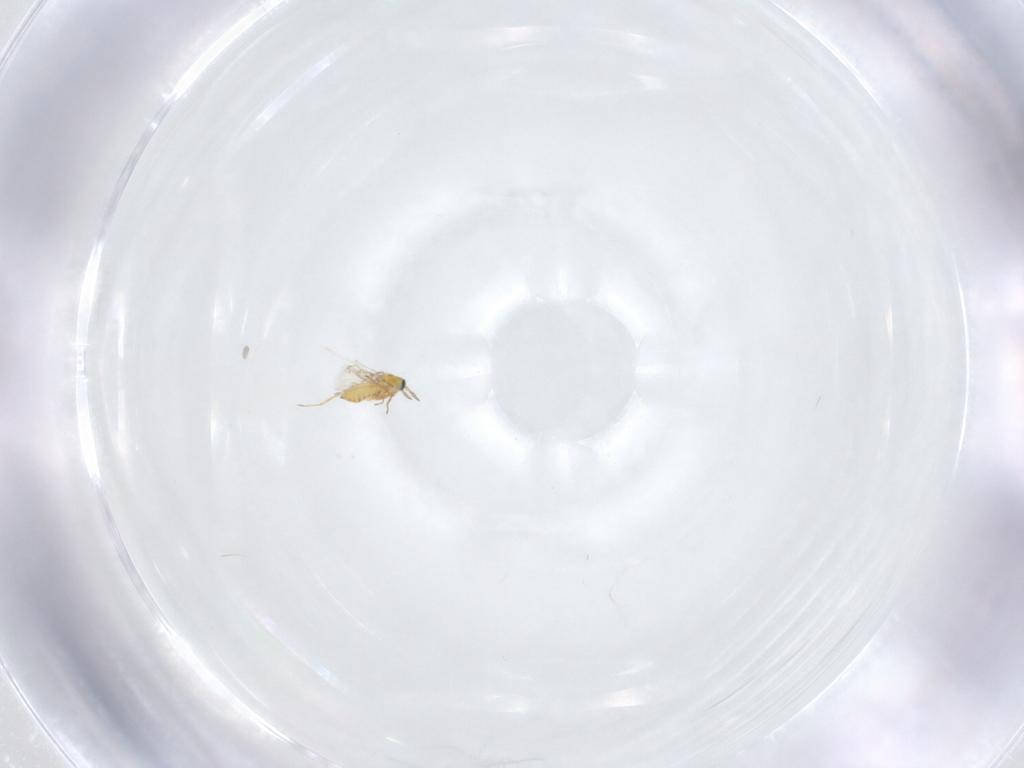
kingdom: Animalia
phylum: Arthropoda
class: Insecta
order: Hymenoptera
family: Trichogrammatidae
